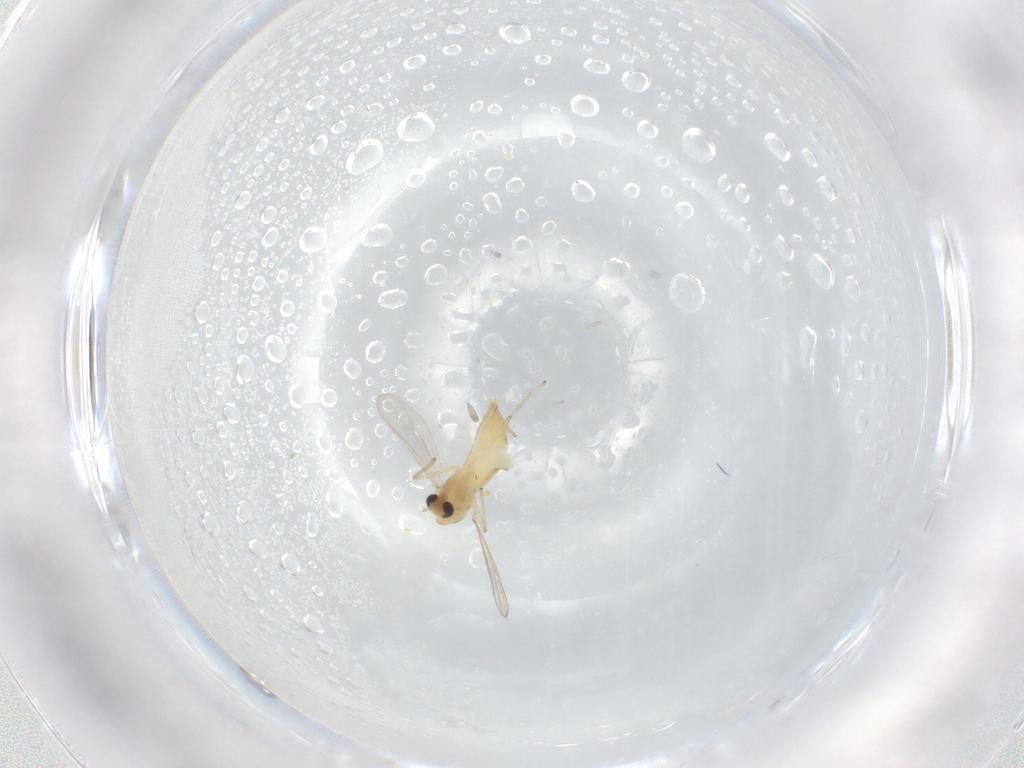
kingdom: Animalia
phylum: Arthropoda
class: Insecta
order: Diptera
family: Chironomidae
